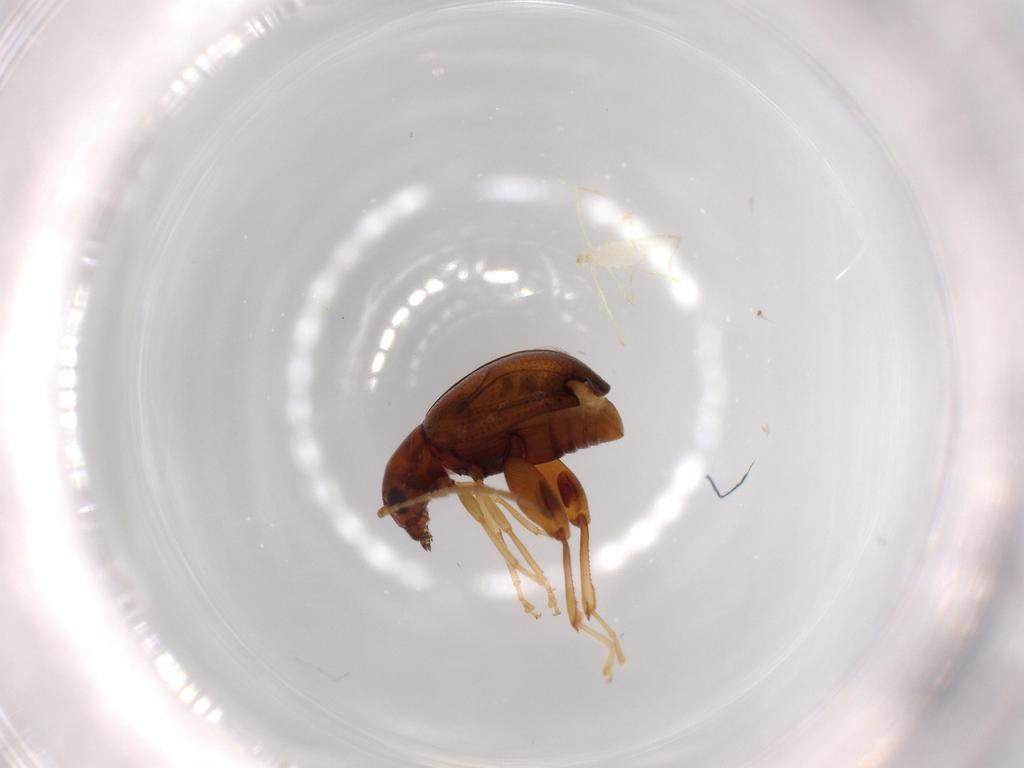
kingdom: Animalia
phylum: Arthropoda
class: Insecta
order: Coleoptera
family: Chrysomelidae
